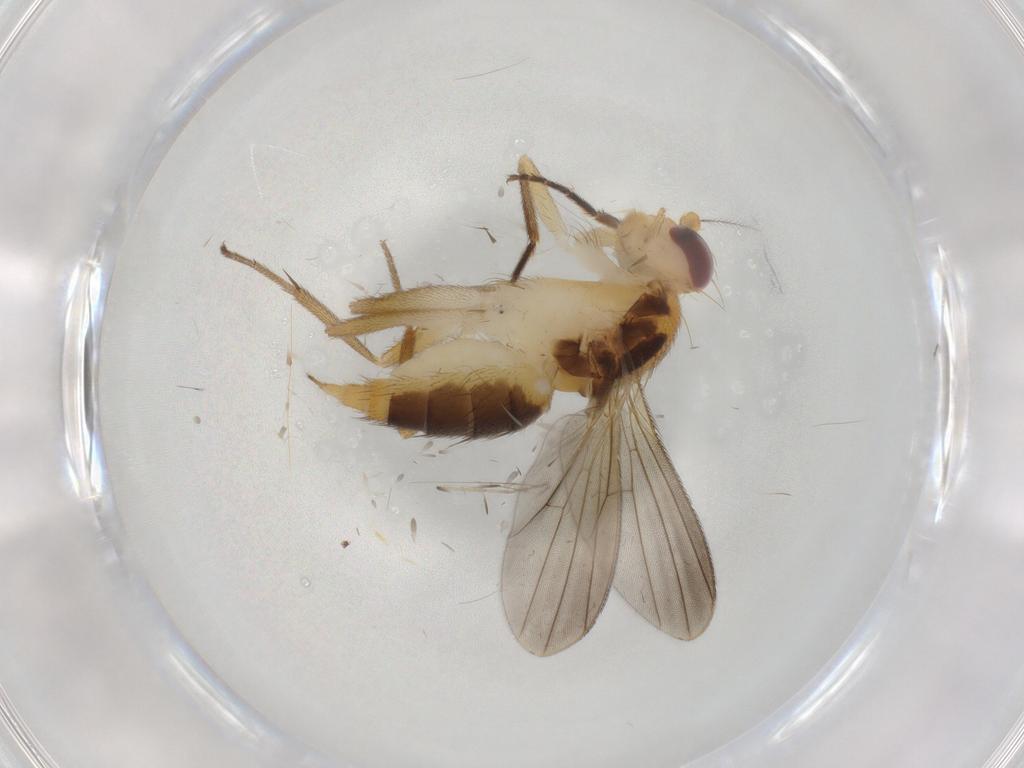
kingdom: Animalia
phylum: Arthropoda
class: Insecta
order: Diptera
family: Agromyzidae
